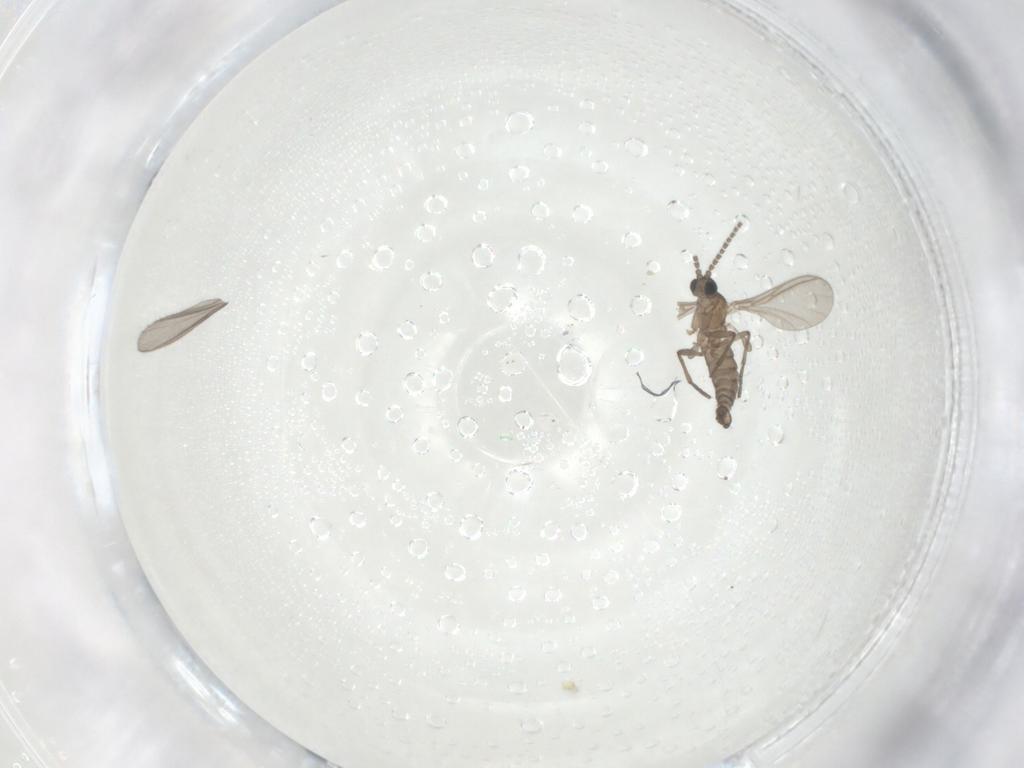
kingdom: Animalia
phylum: Arthropoda
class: Insecta
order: Diptera
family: Sciaridae
